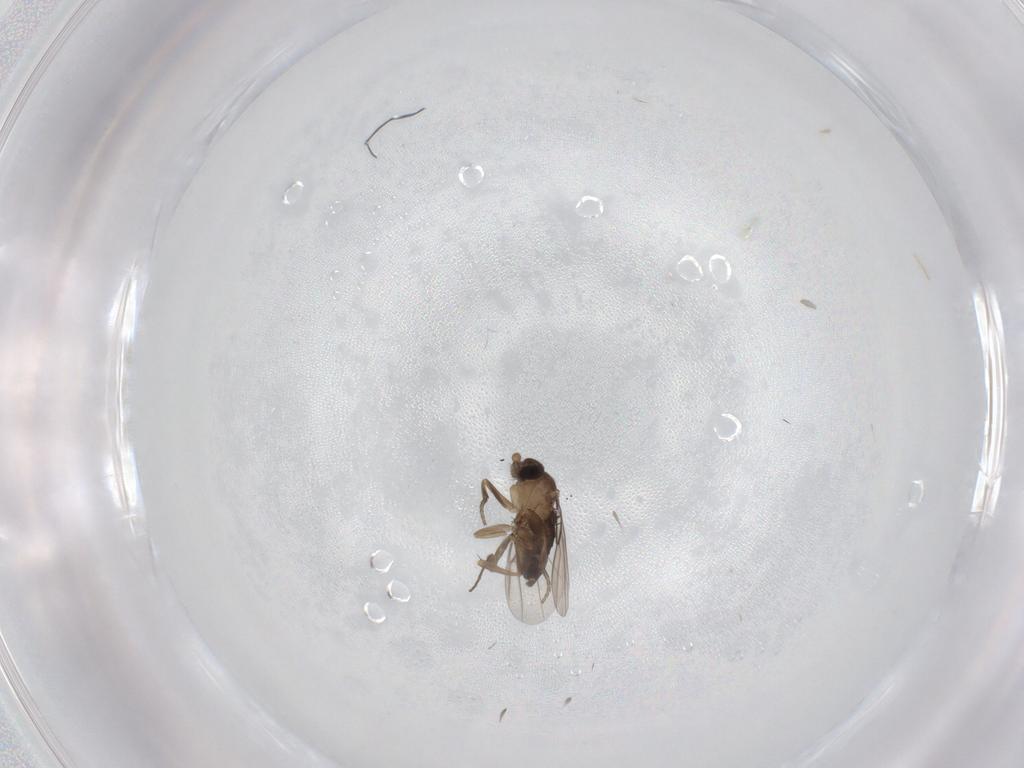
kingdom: Animalia
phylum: Arthropoda
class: Insecta
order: Diptera
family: Phoridae
